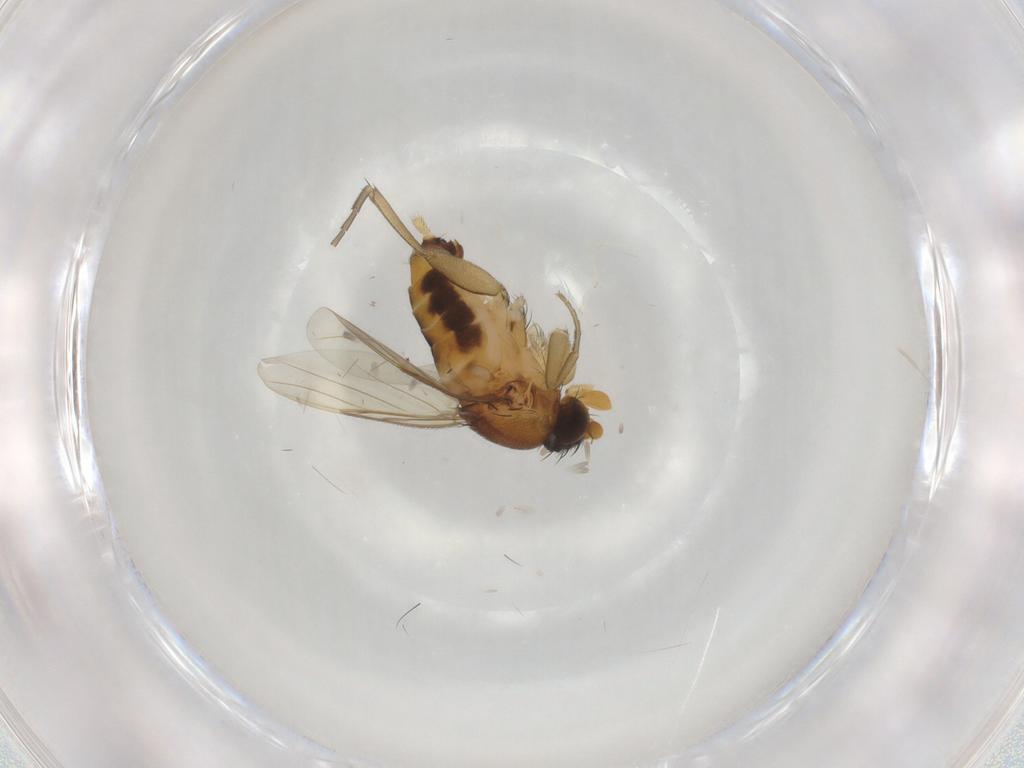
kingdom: Animalia
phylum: Arthropoda
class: Insecta
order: Diptera
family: Phoridae
